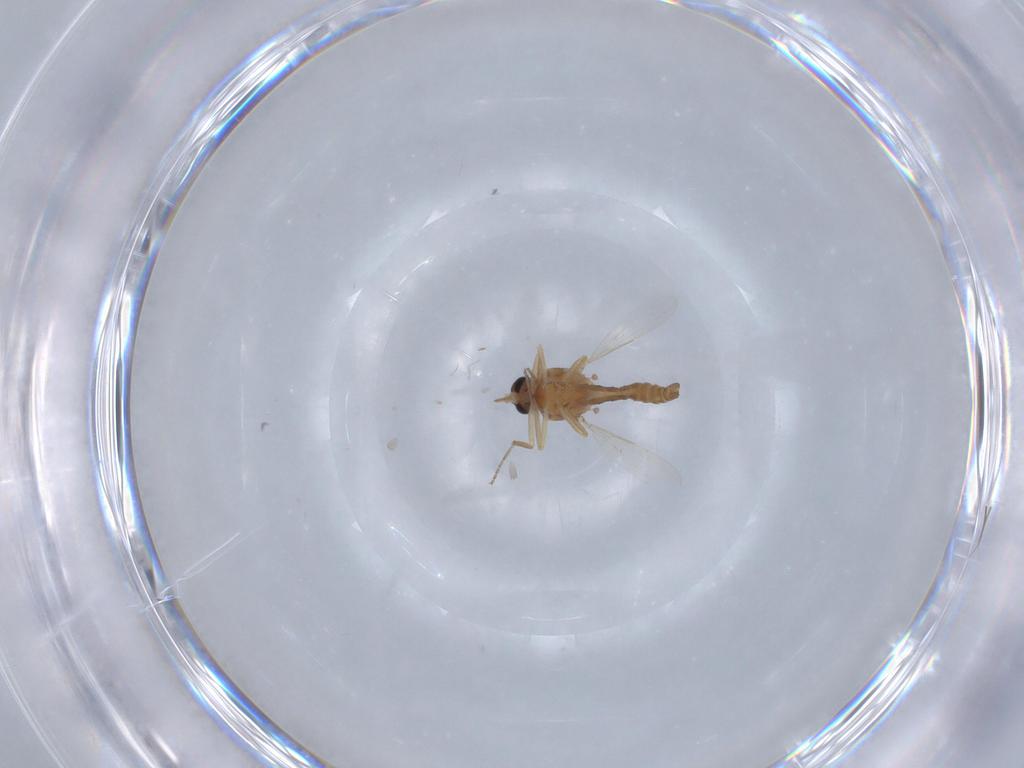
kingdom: Animalia
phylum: Arthropoda
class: Insecta
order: Diptera
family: Ceratopogonidae
